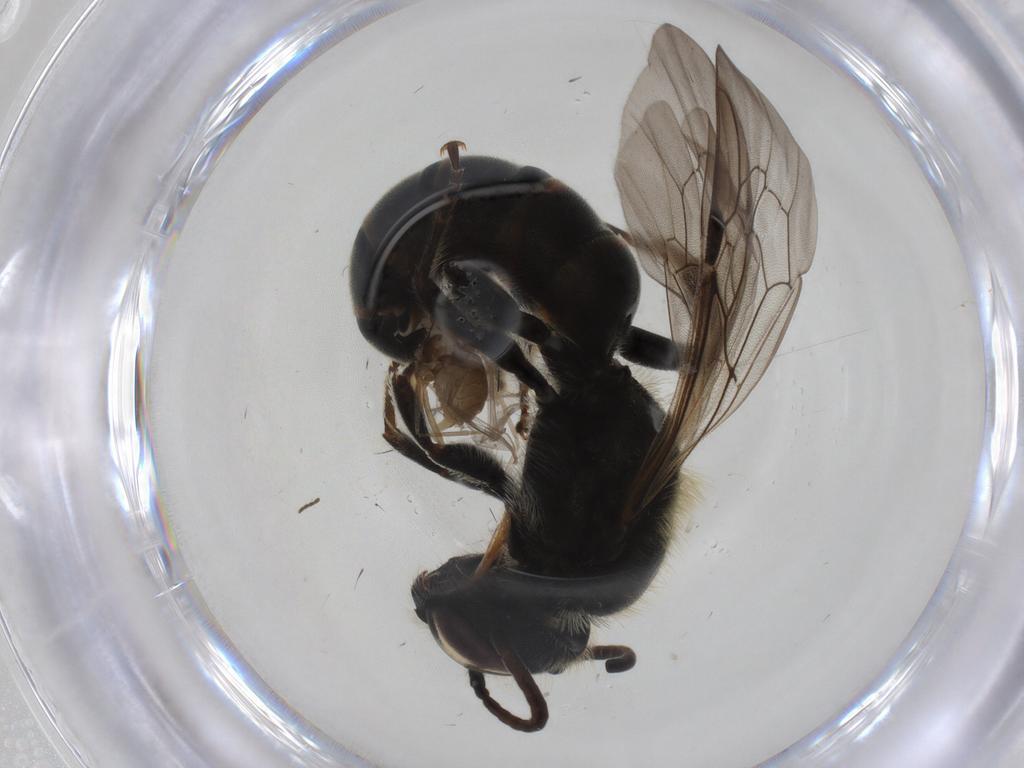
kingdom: Animalia
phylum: Arthropoda
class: Insecta
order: Diptera
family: Cecidomyiidae
